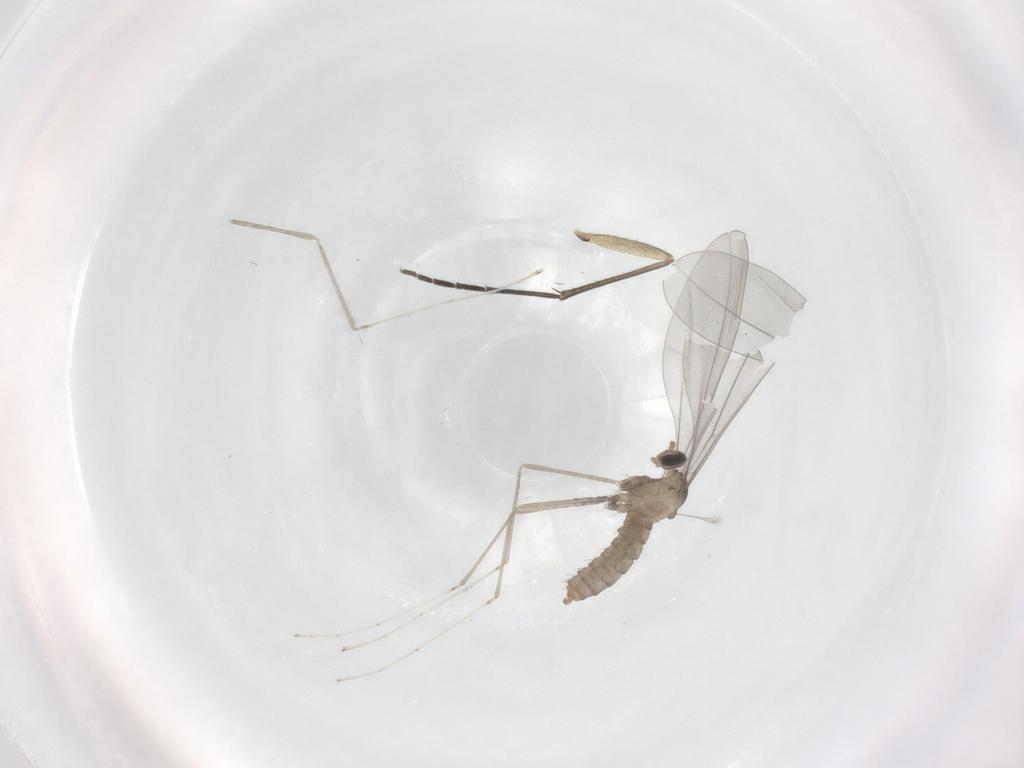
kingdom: Animalia
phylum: Arthropoda
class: Insecta
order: Diptera
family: Cecidomyiidae
